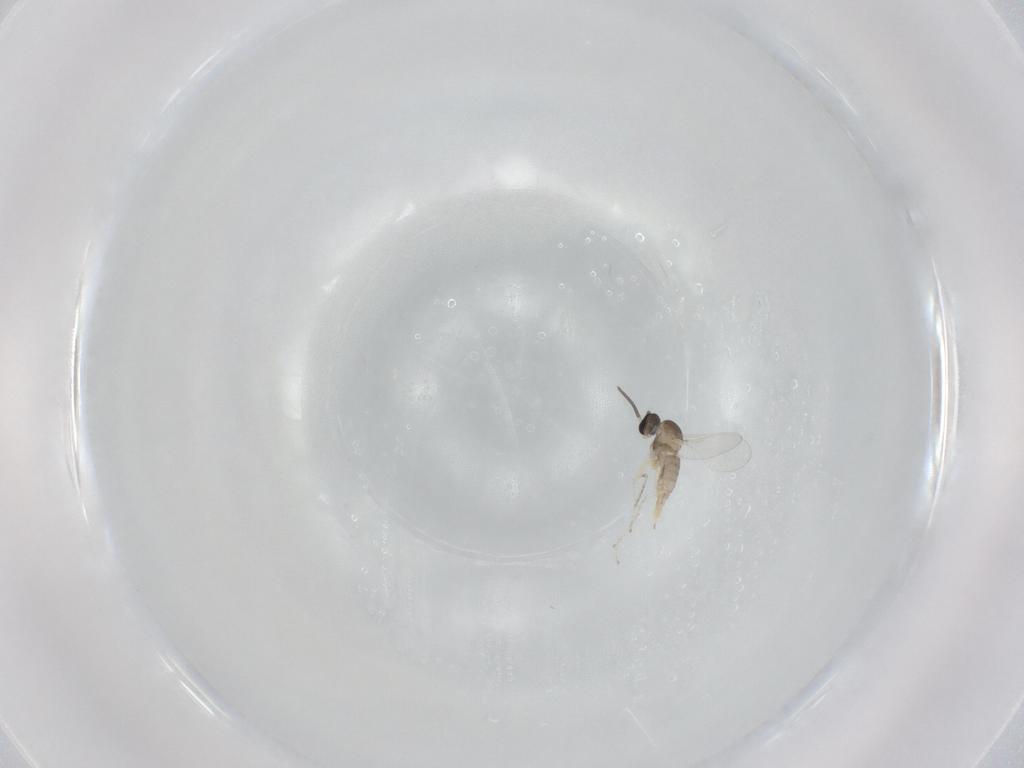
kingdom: Animalia
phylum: Arthropoda
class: Insecta
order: Diptera
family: Cecidomyiidae
